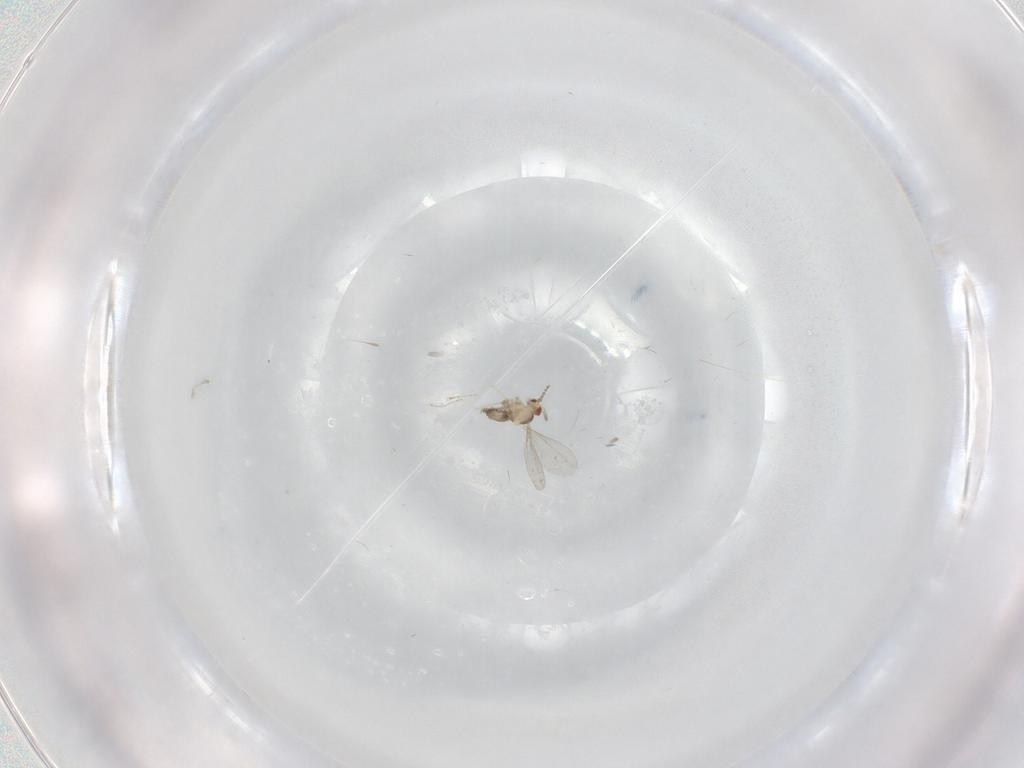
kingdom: Animalia
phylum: Arthropoda
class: Insecta
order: Diptera
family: Cecidomyiidae
